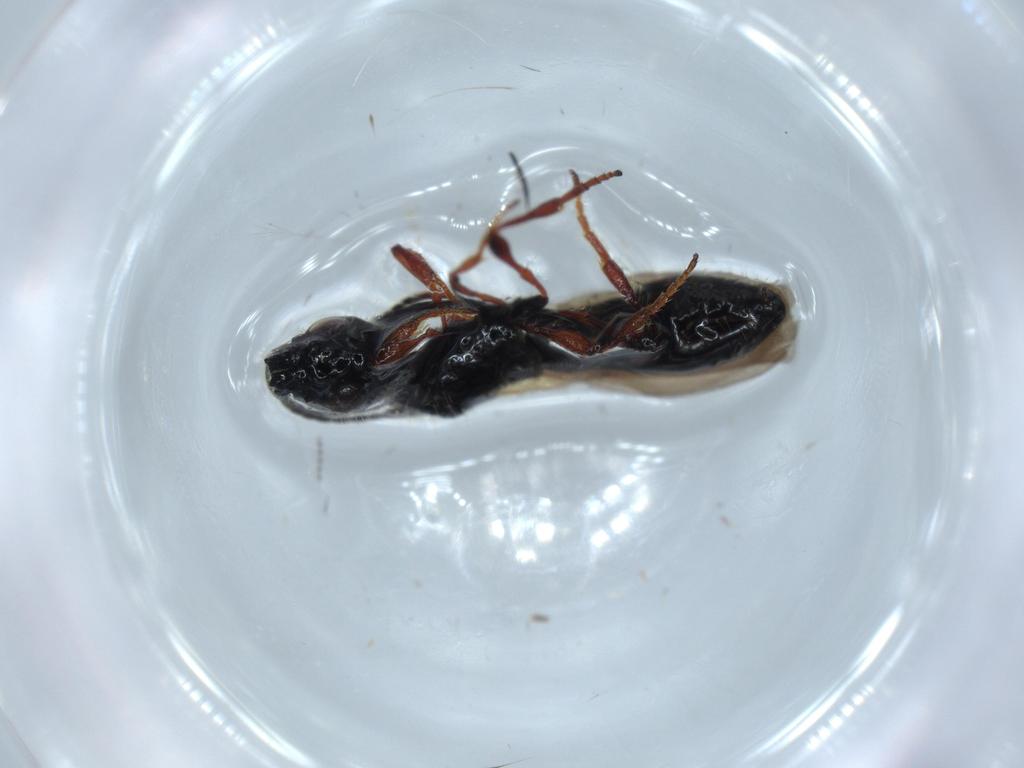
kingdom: Animalia
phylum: Arthropoda
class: Insecta
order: Hymenoptera
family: Diapriidae
